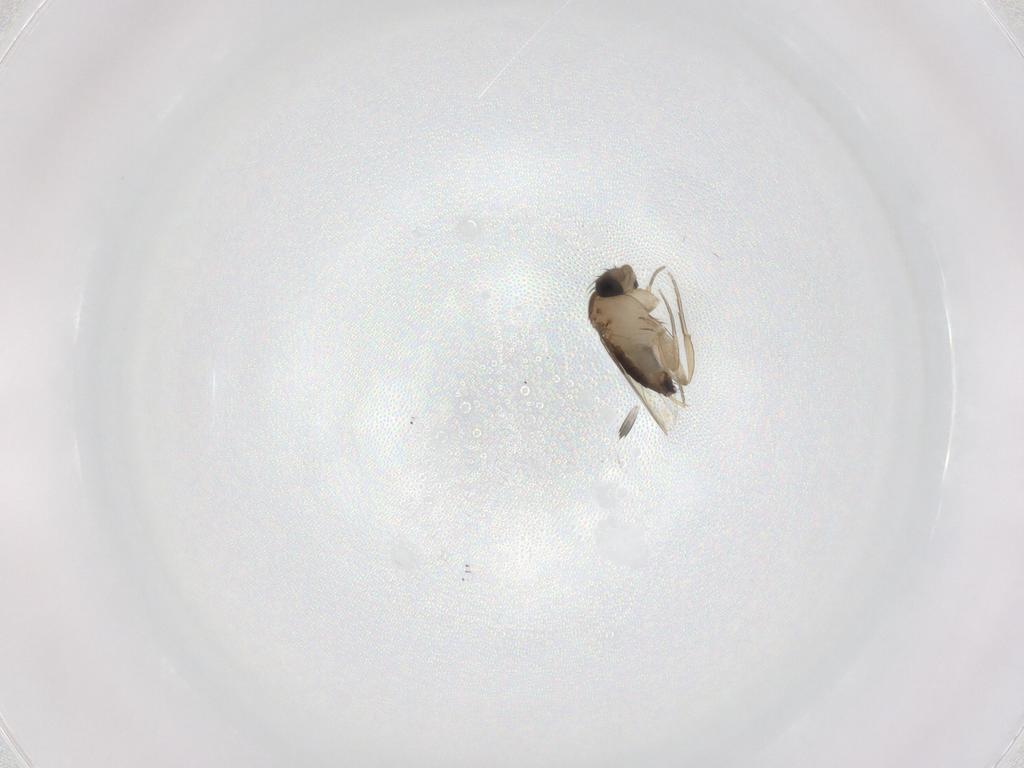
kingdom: Animalia
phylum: Arthropoda
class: Insecta
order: Diptera
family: Phoridae
